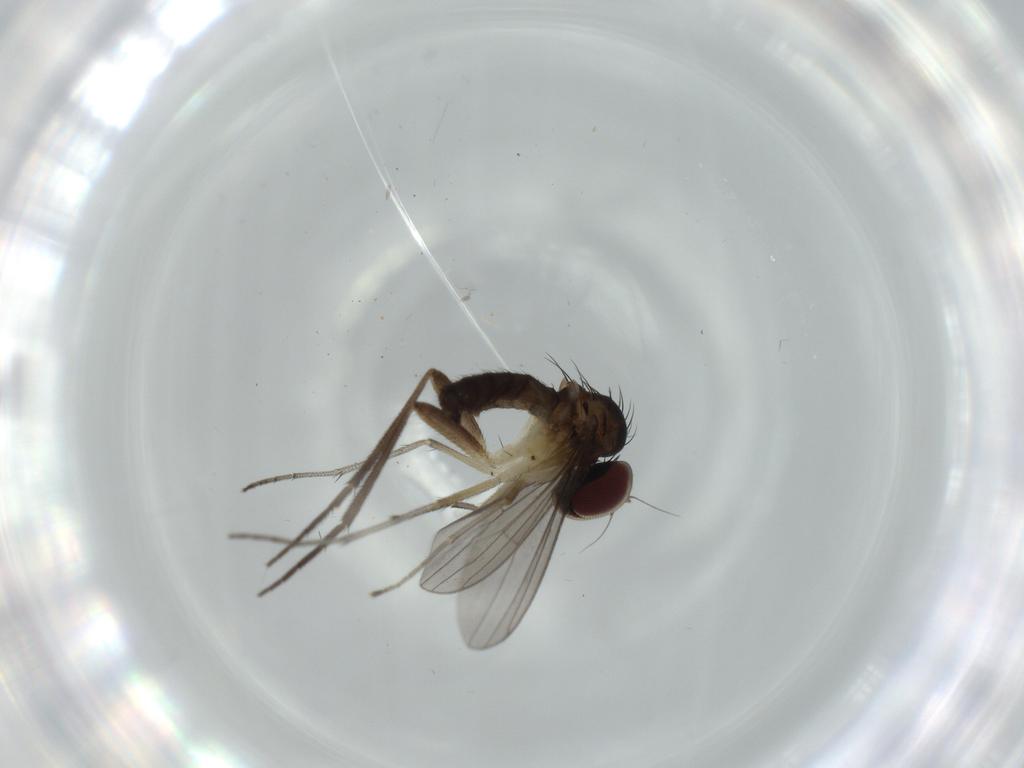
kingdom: Animalia
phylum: Arthropoda
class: Insecta
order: Diptera
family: Dolichopodidae
